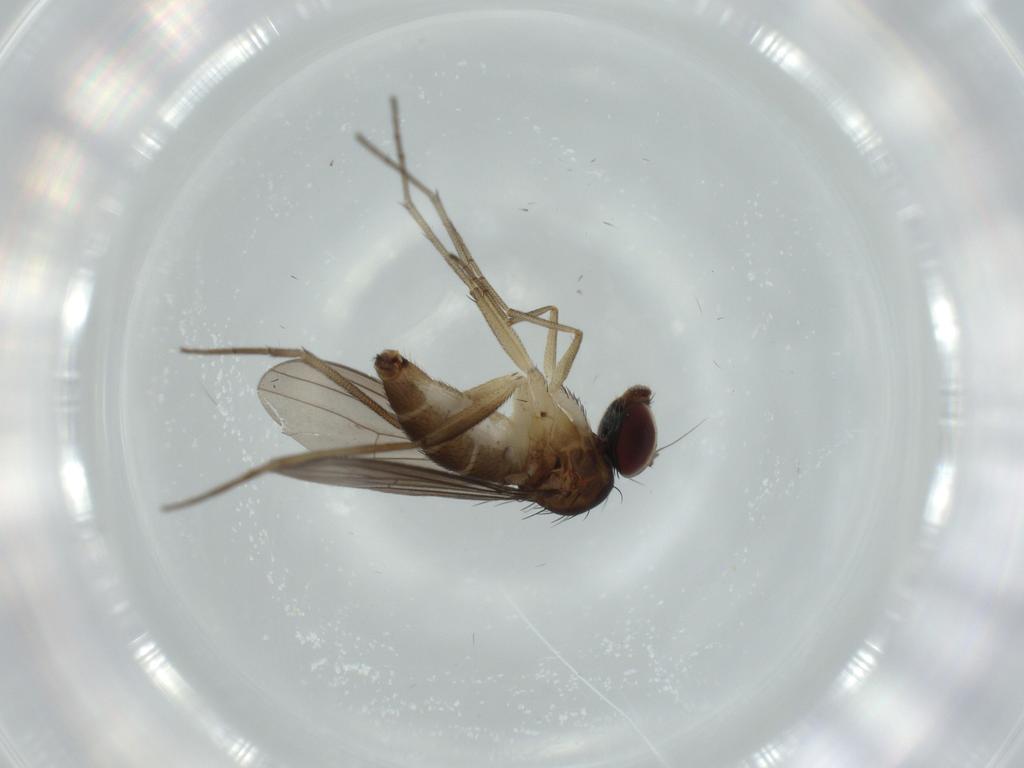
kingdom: Animalia
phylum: Arthropoda
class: Insecta
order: Diptera
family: Dolichopodidae
